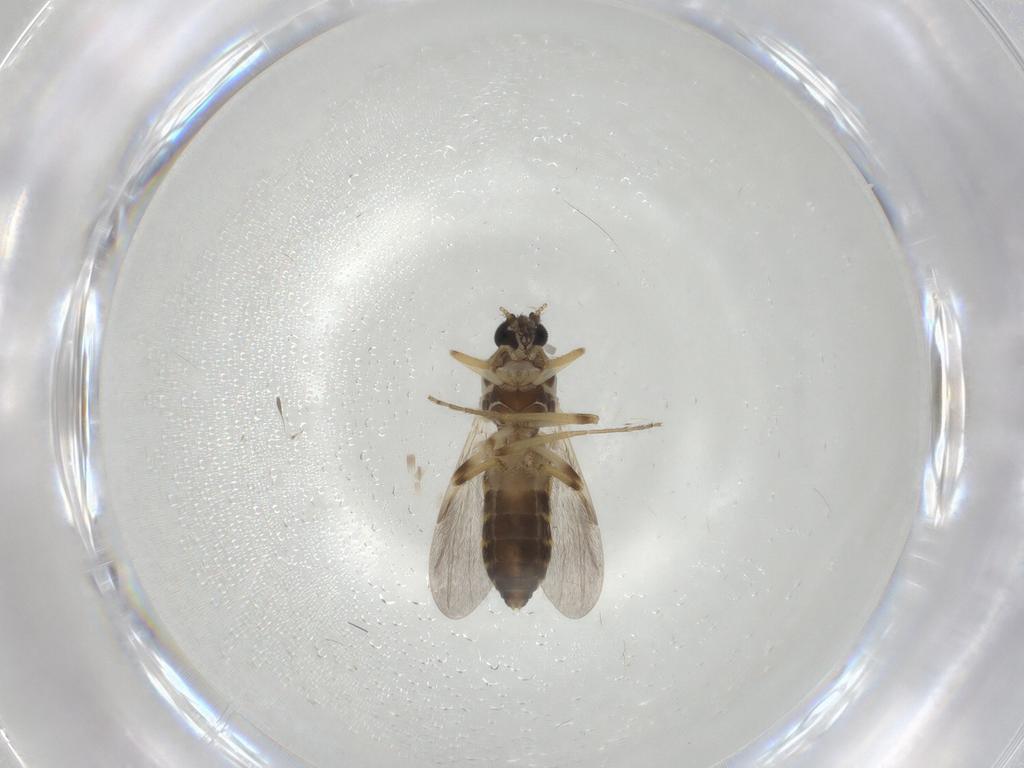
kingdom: Animalia
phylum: Arthropoda
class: Insecta
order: Diptera
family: Ceratopogonidae
